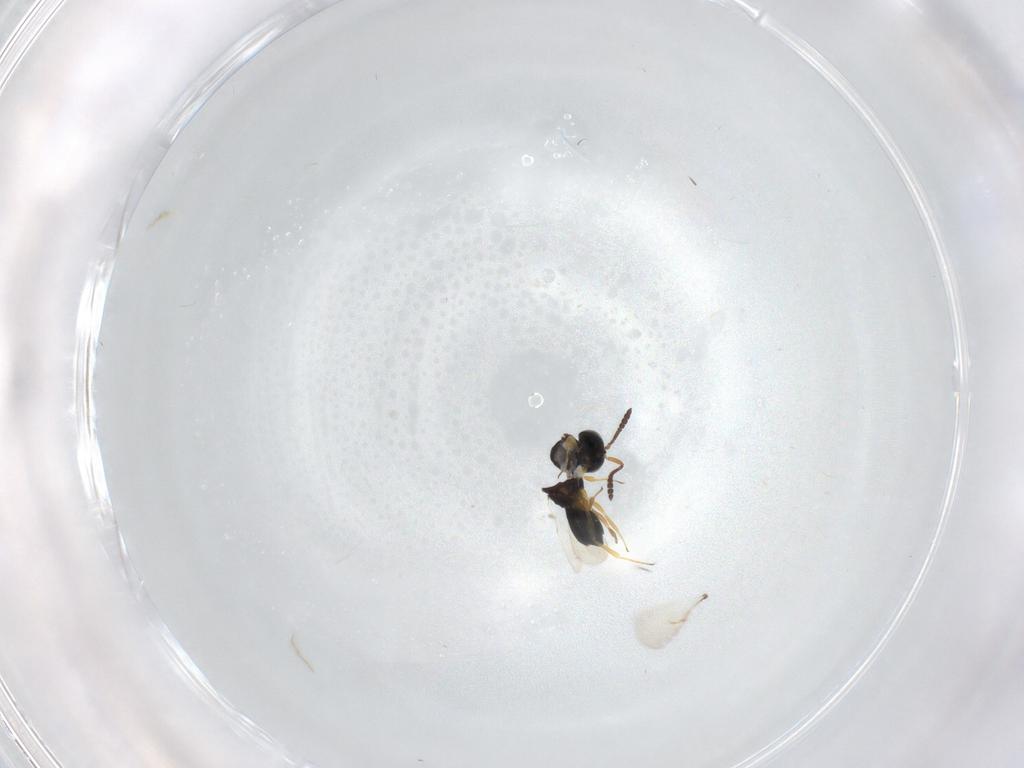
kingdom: Animalia
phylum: Arthropoda
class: Insecta
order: Hymenoptera
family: Scelionidae
